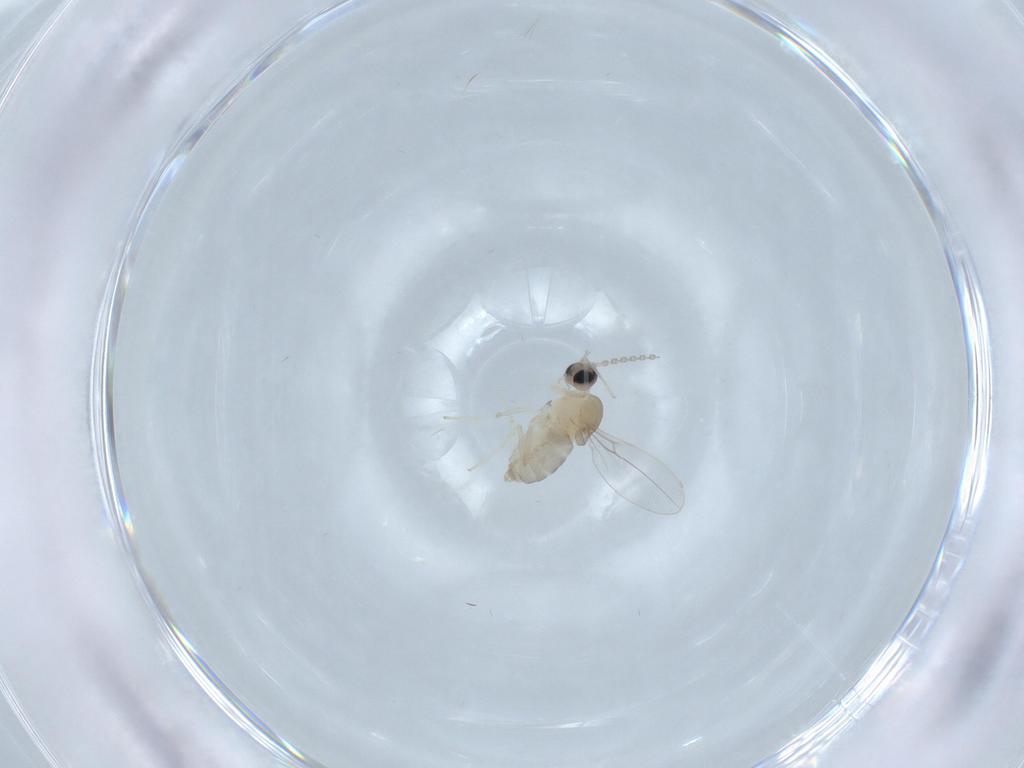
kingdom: Animalia
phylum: Arthropoda
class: Insecta
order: Diptera
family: Cecidomyiidae
